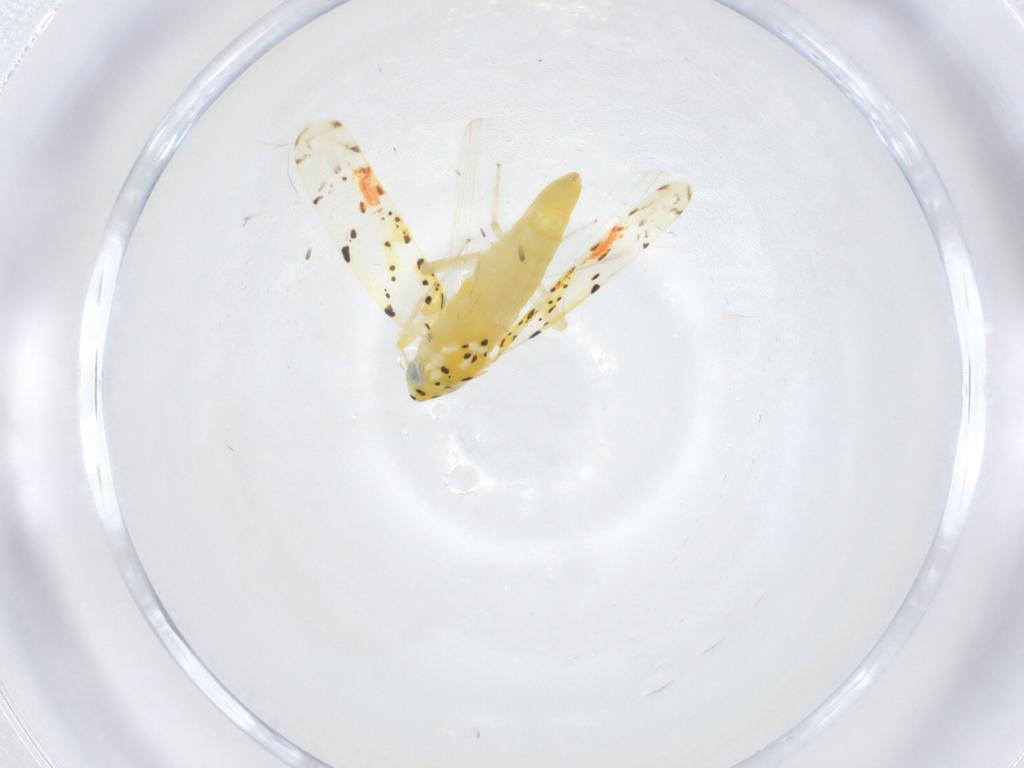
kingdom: Animalia
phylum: Arthropoda
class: Insecta
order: Hemiptera
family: Cicadellidae
